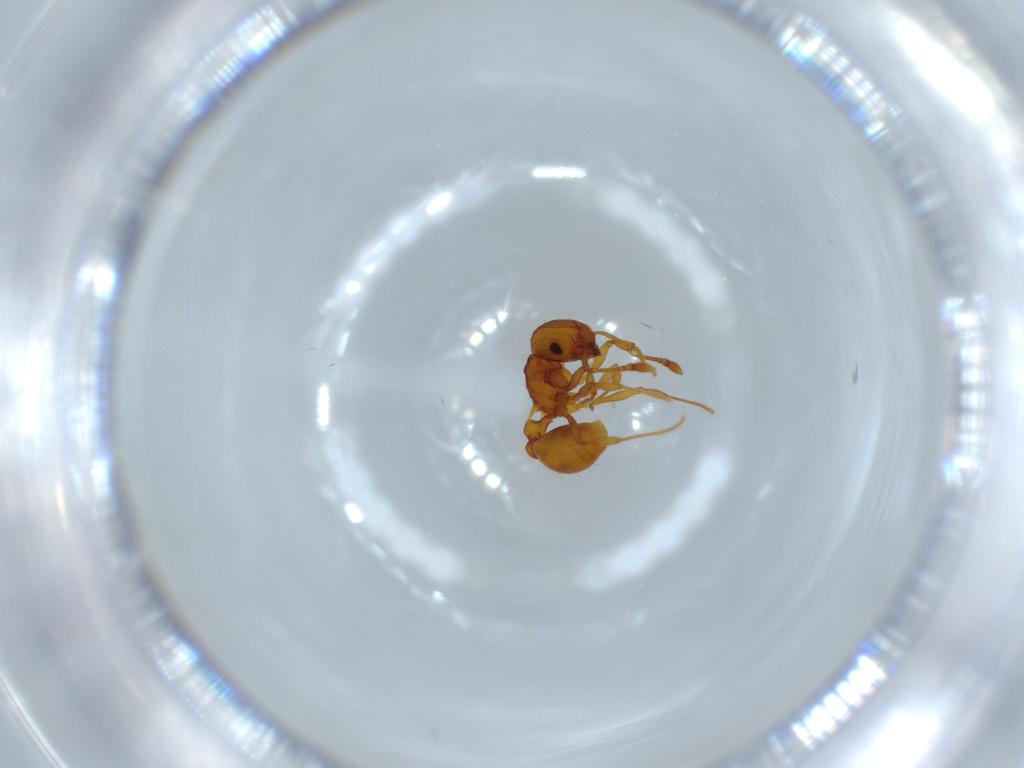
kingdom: Animalia
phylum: Arthropoda
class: Insecta
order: Hymenoptera
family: Formicidae
